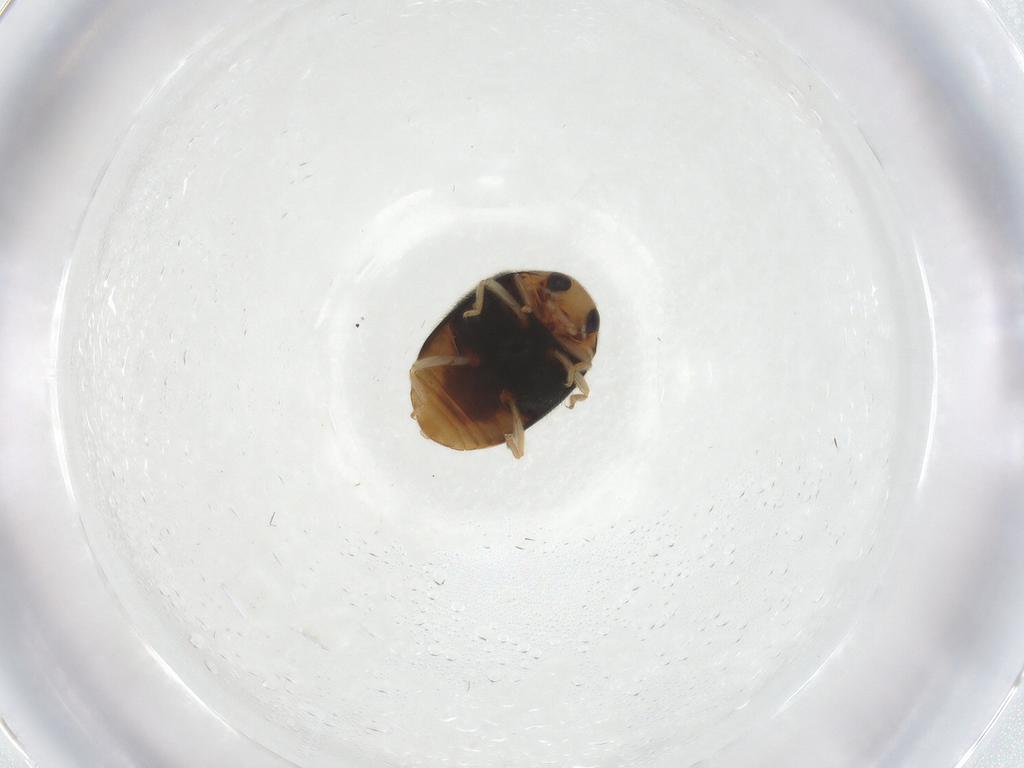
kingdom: Animalia
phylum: Arthropoda
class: Insecta
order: Coleoptera
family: Coccinellidae
